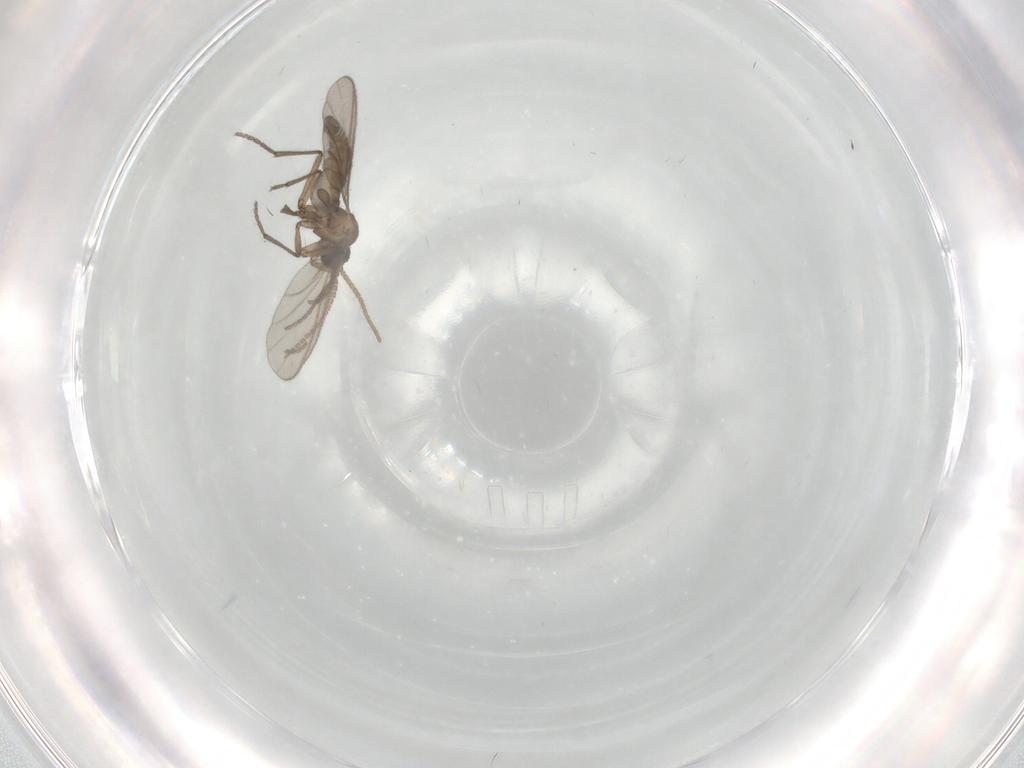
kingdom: Animalia
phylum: Arthropoda
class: Insecta
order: Diptera
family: Sciaridae
